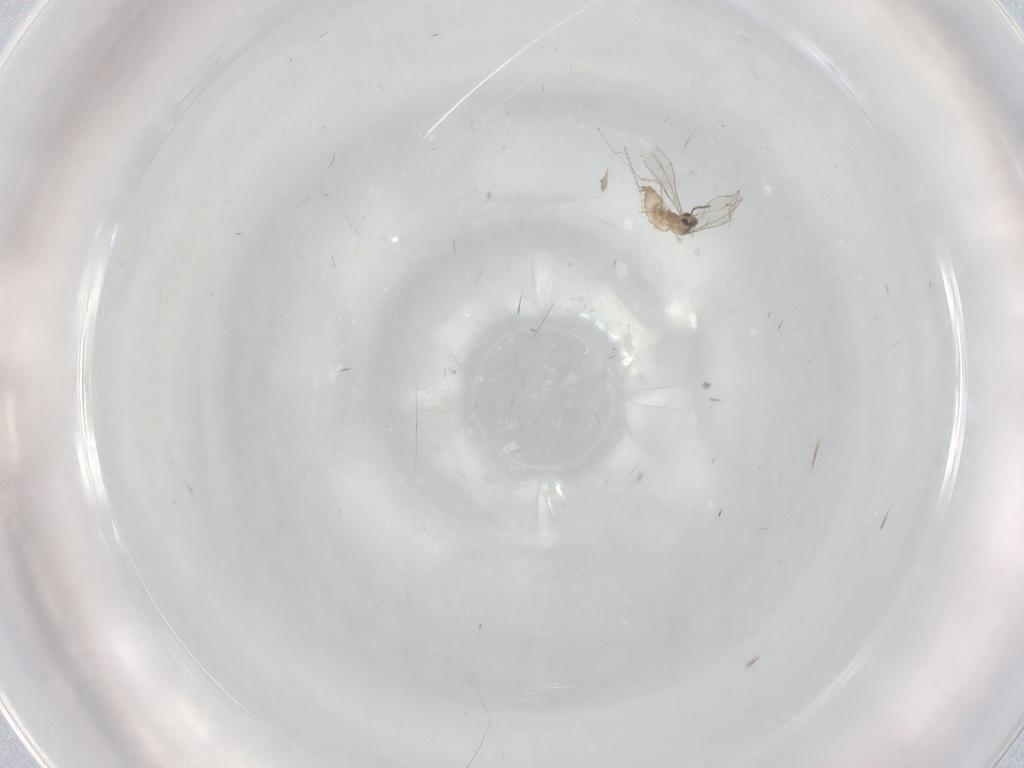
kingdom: Animalia
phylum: Arthropoda
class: Insecta
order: Diptera
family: Cecidomyiidae
